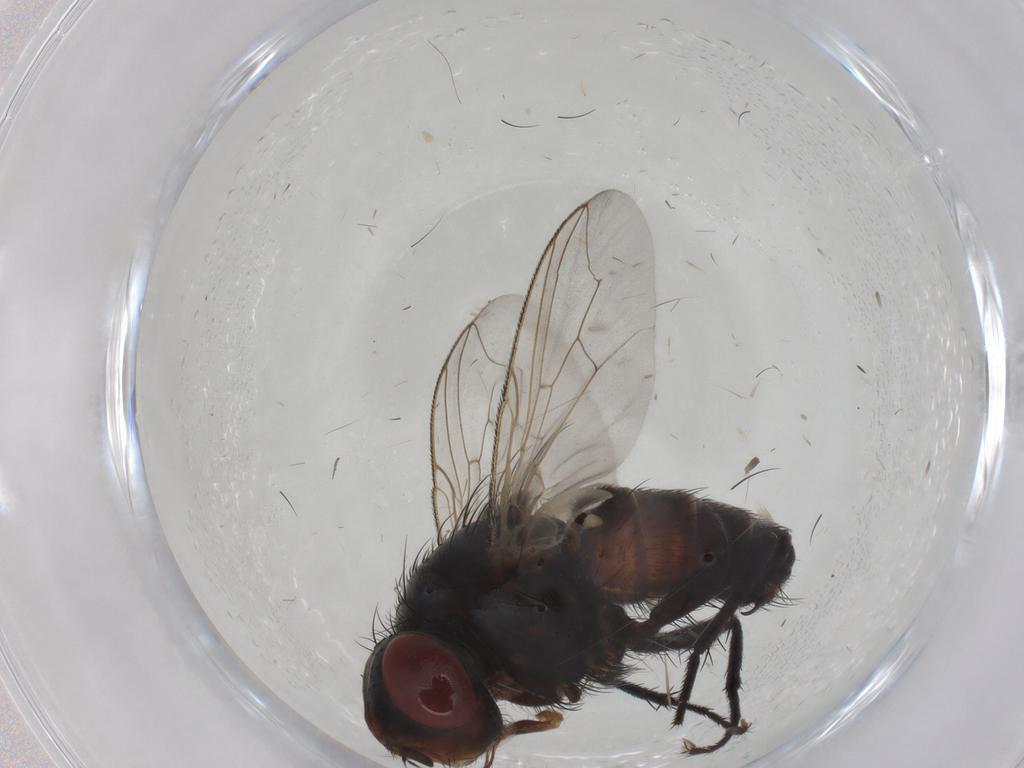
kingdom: Animalia
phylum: Arthropoda
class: Insecta
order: Diptera
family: Sarcophagidae
